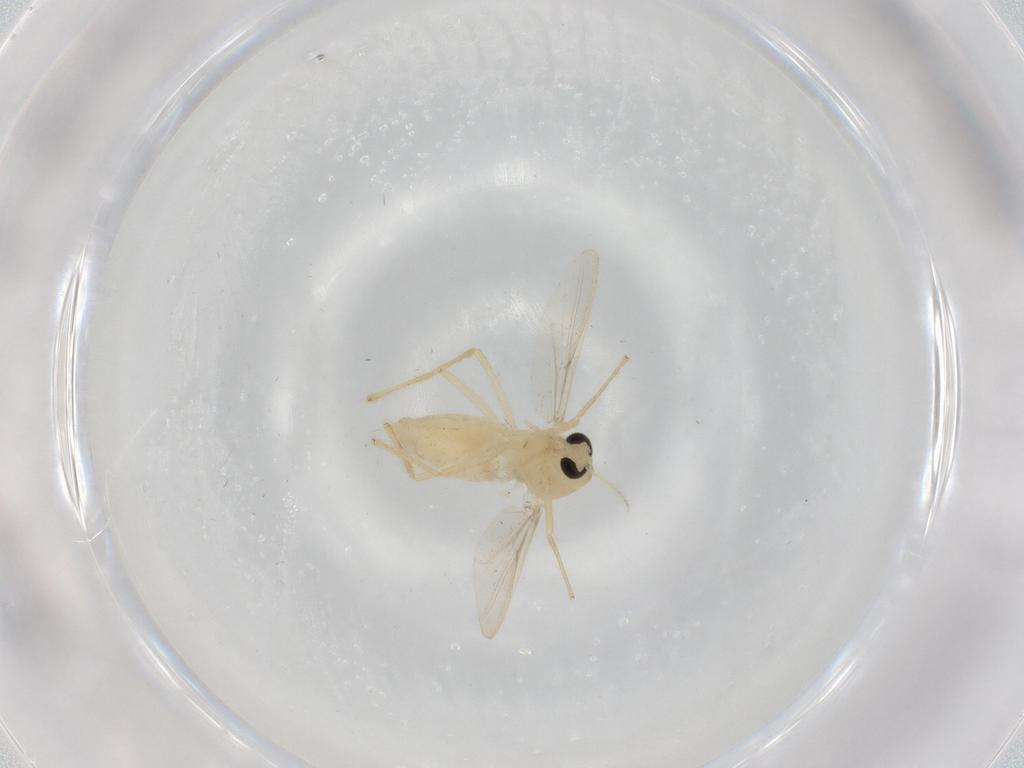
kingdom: Animalia
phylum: Arthropoda
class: Insecta
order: Diptera
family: Chironomidae
